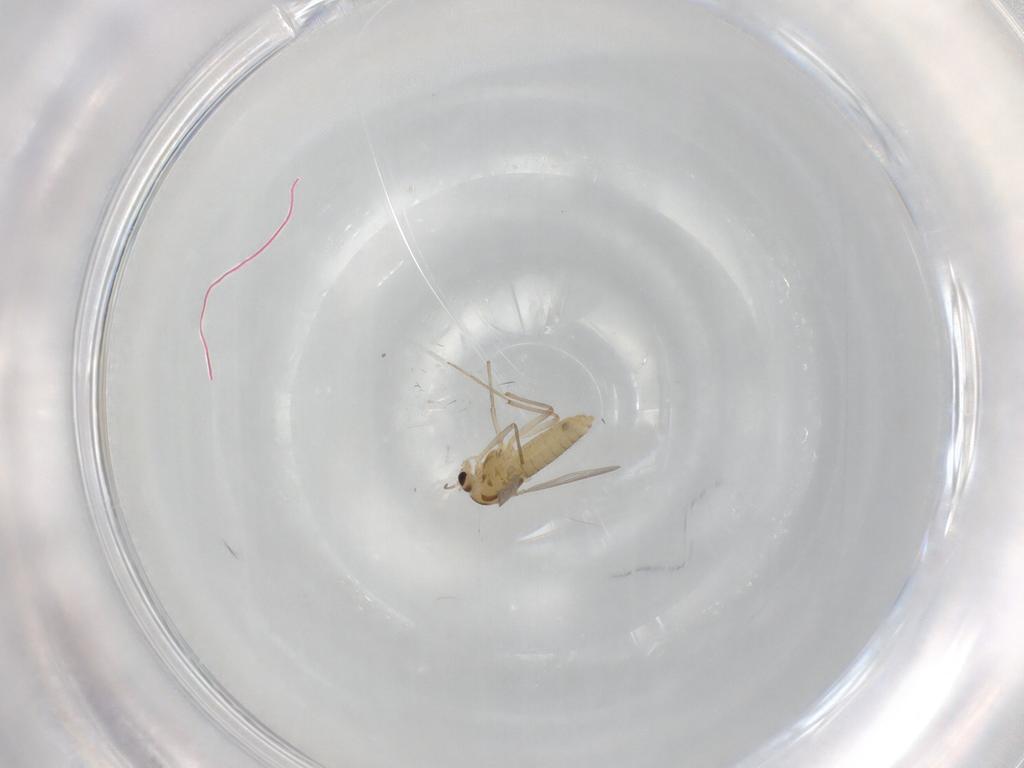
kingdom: Animalia
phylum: Arthropoda
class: Insecta
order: Diptera
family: Chironomidae
